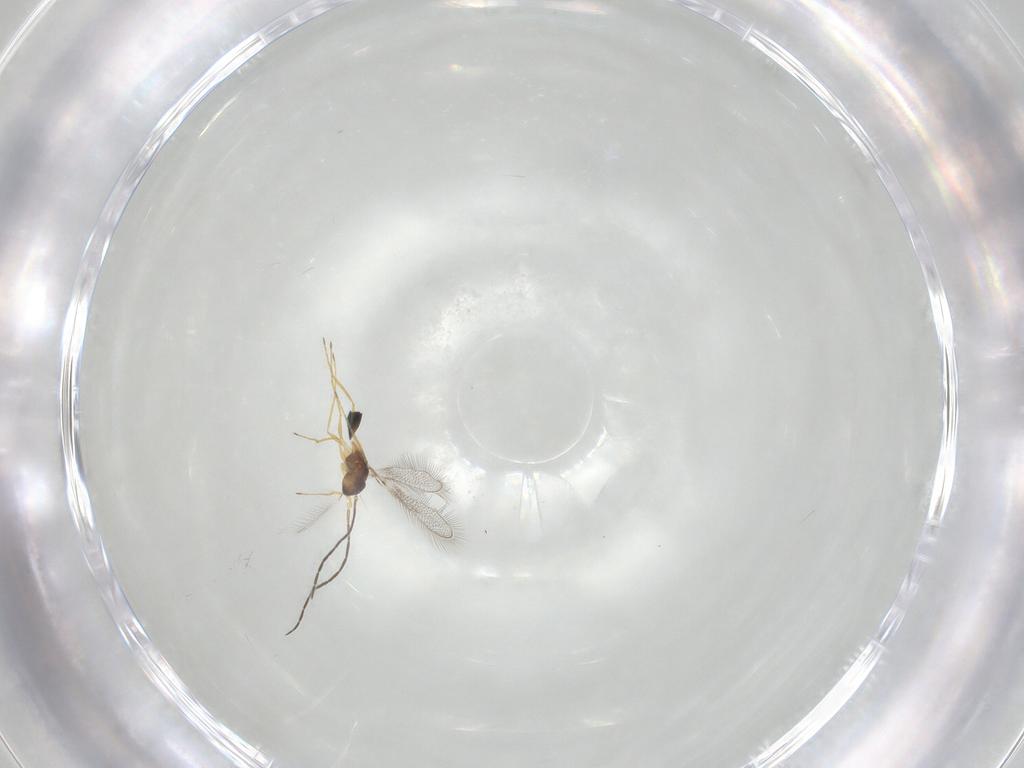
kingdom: Animalia
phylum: Arthropoda
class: Insecta
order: Hymenoptera
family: Mymaridae
